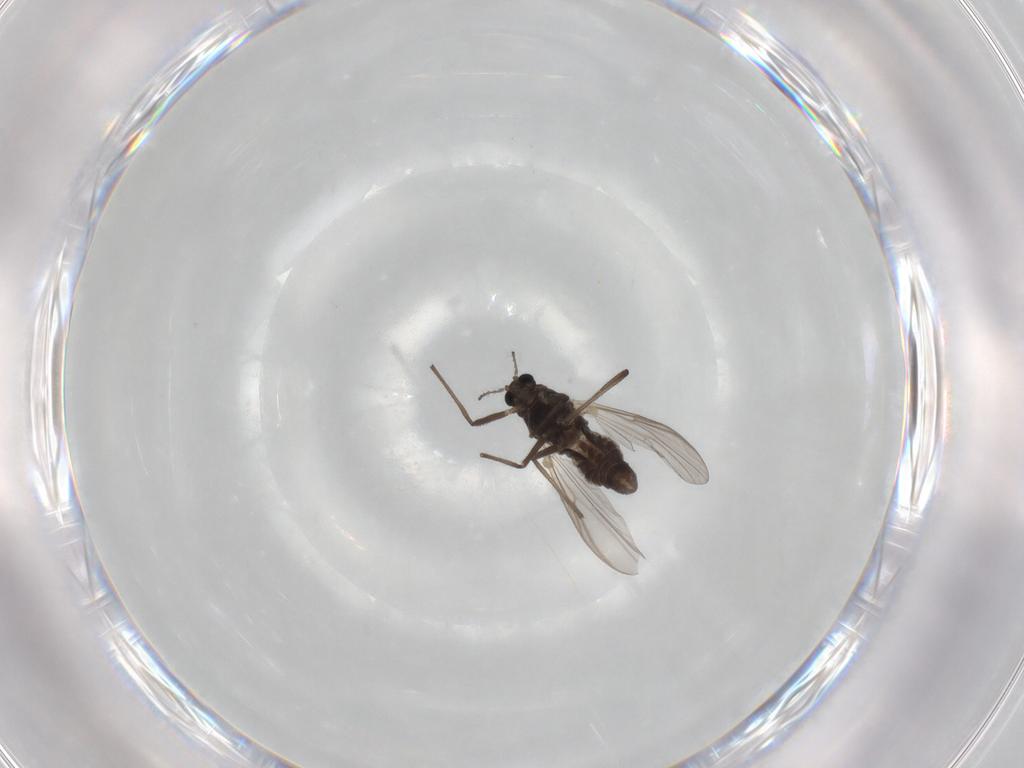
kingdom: Animalia
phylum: Arthropoda
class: Insecta
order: Diptera
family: Chironomidae
